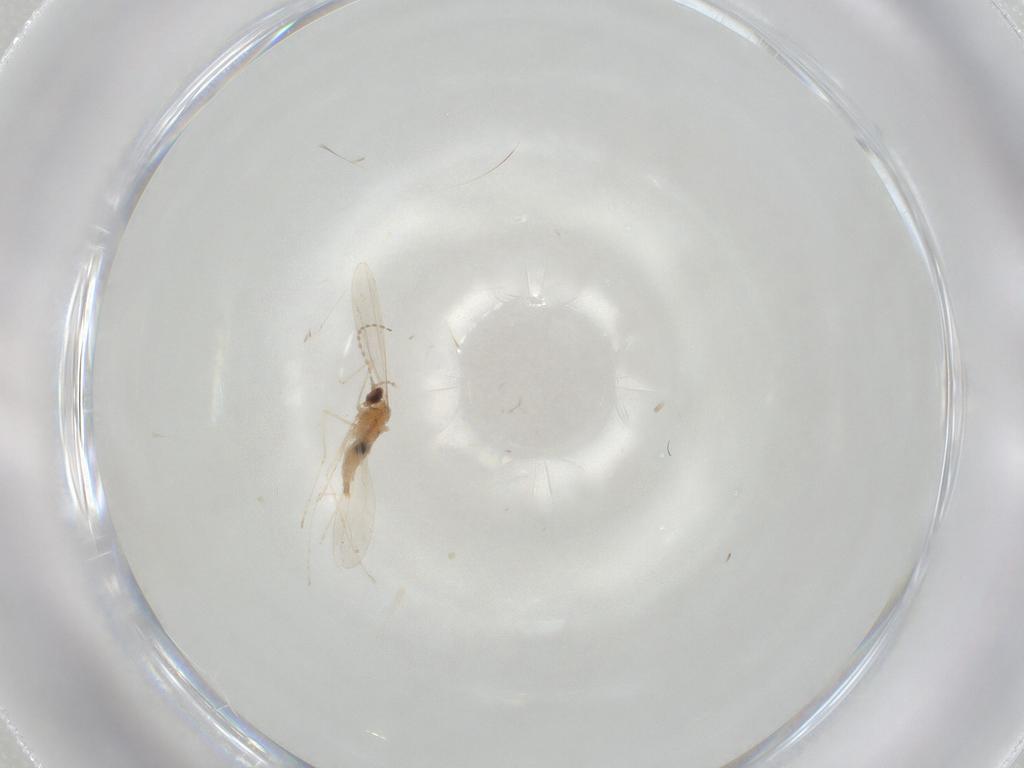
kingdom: Animalia
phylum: Arthropoda
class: Insecta
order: Diptera
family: Cecidomyiidae
